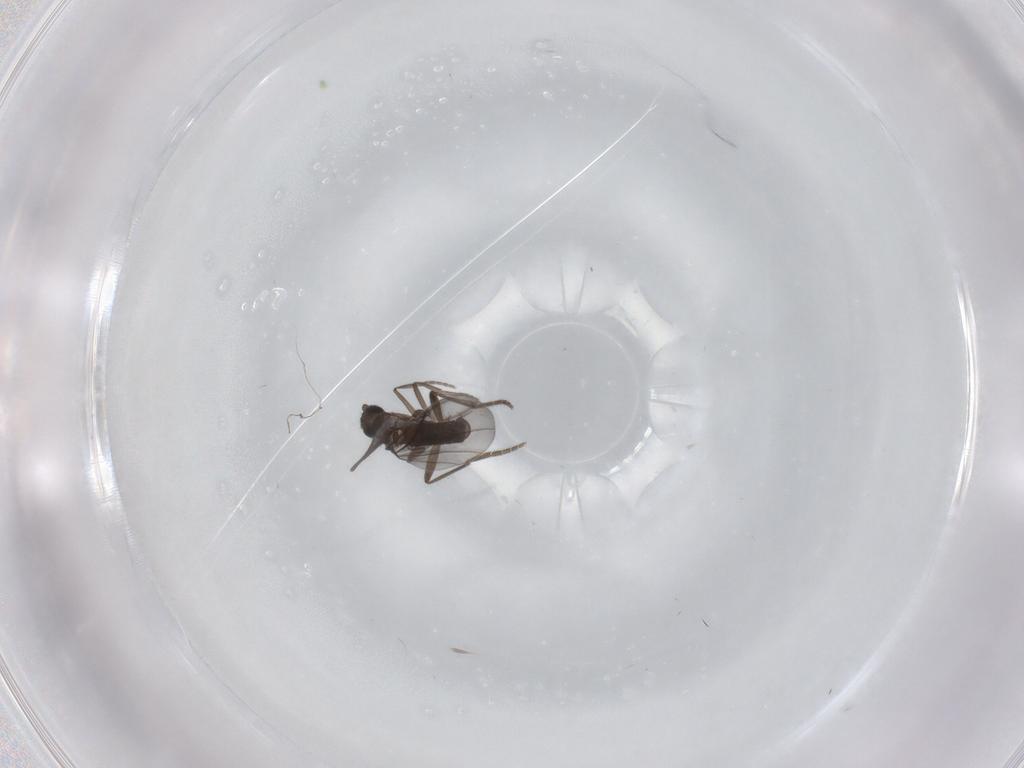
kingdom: Animalia
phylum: Arthropoda
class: Insecta
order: Diptera
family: Phoridae
